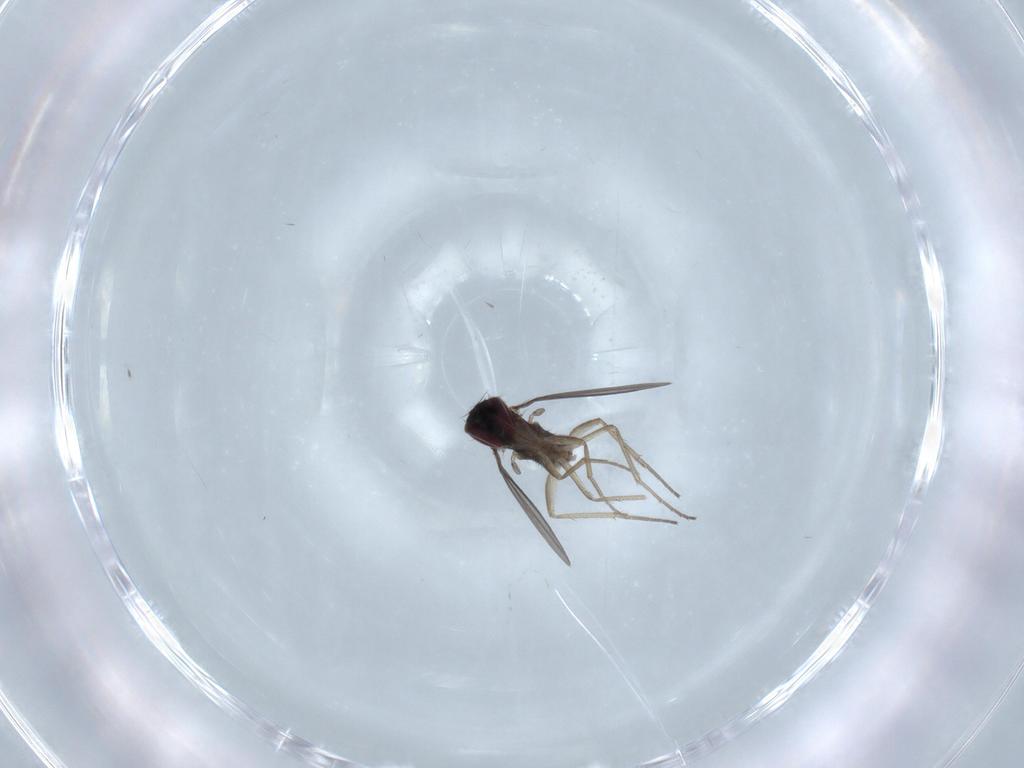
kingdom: Animalia
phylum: Arthropoda
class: Insecta
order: Diptera
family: Dolichopodidae
